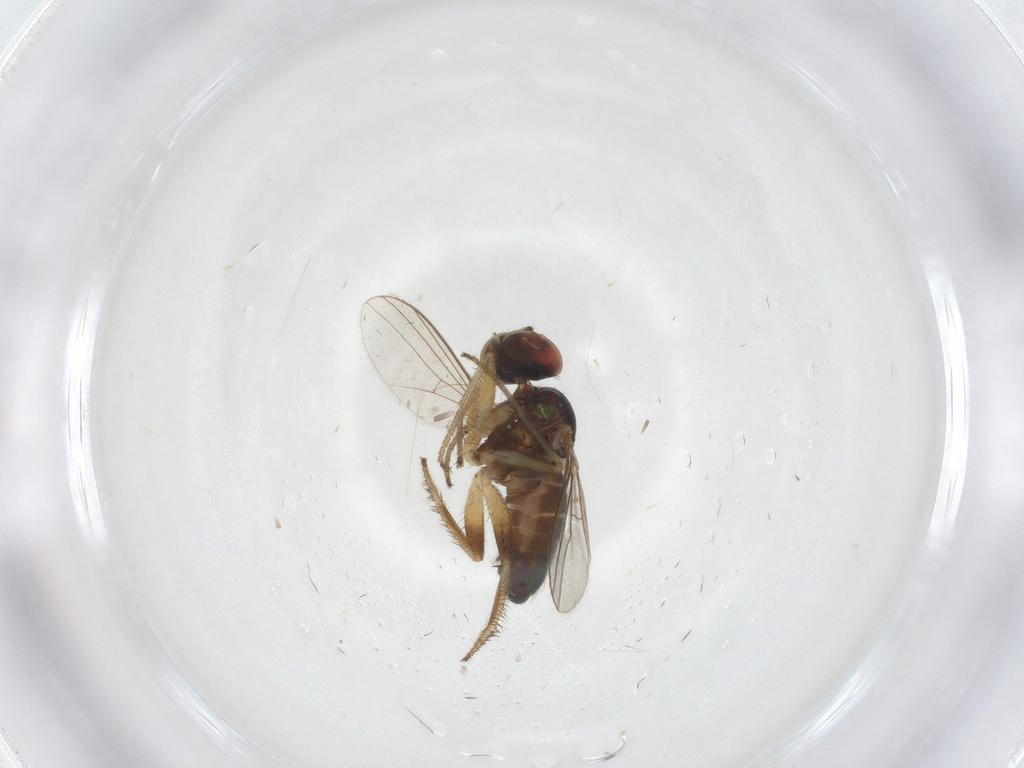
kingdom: Animalia
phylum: Arthropoda
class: Insecta
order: Diptera
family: Dolichopodidae
